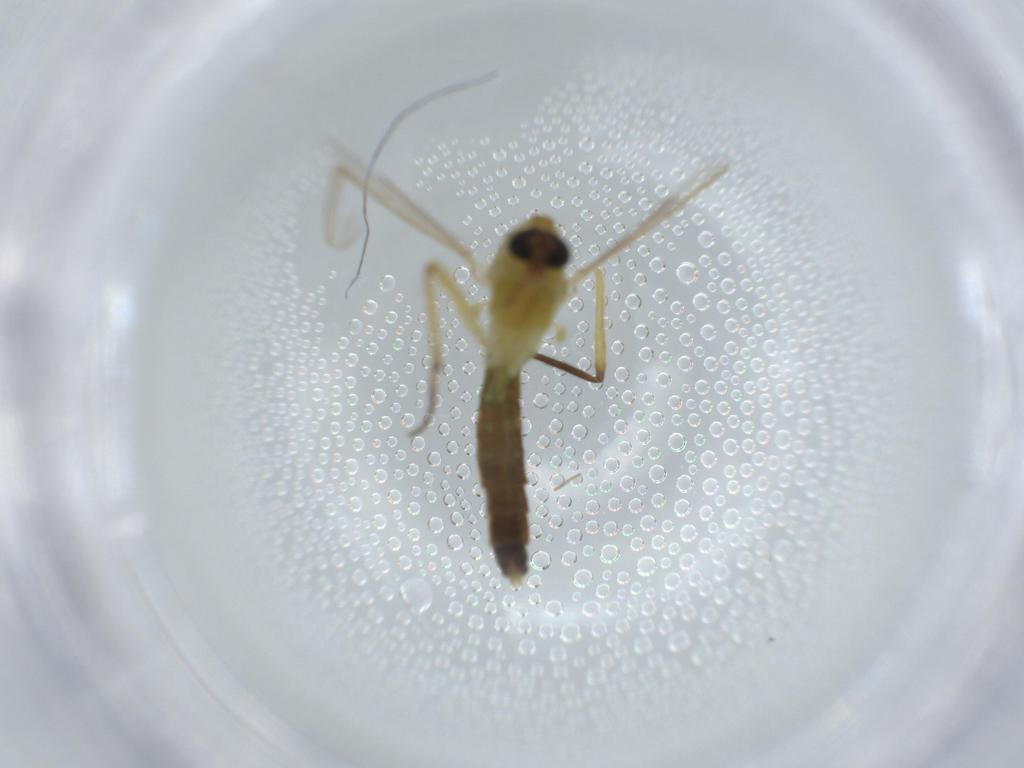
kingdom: Animalia
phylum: Arthropoda
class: Insecta
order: Diptera
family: Chironomidae
